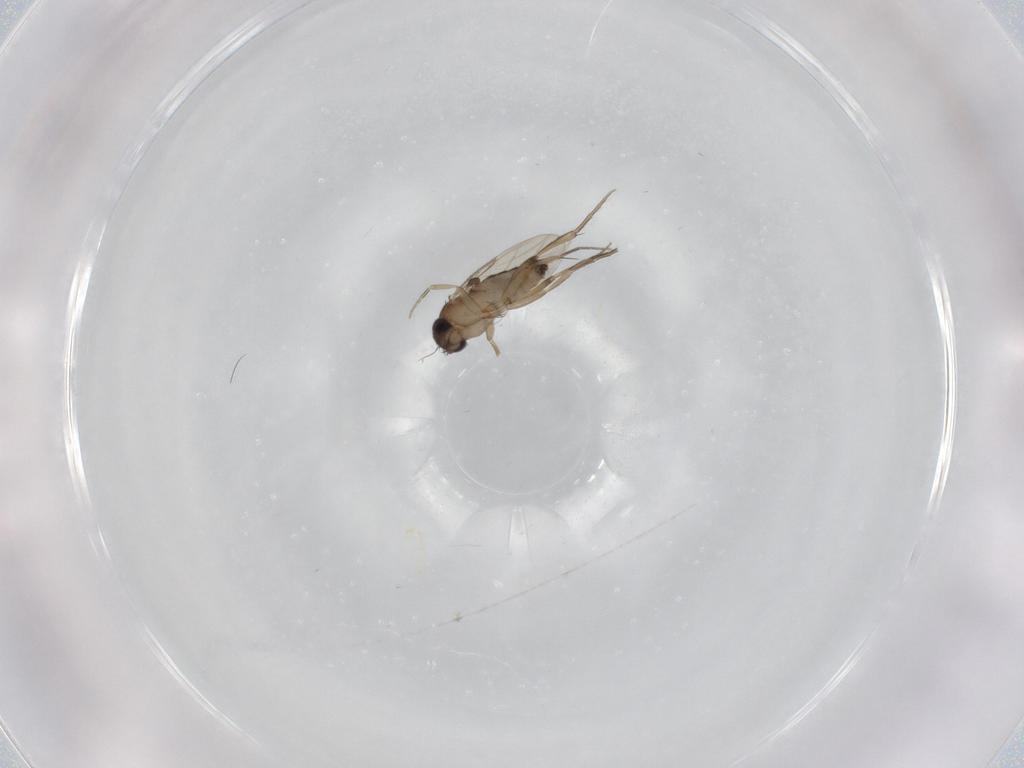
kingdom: Animalia
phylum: Arthropoda
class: Insecta
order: Diptera
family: Phoridae
